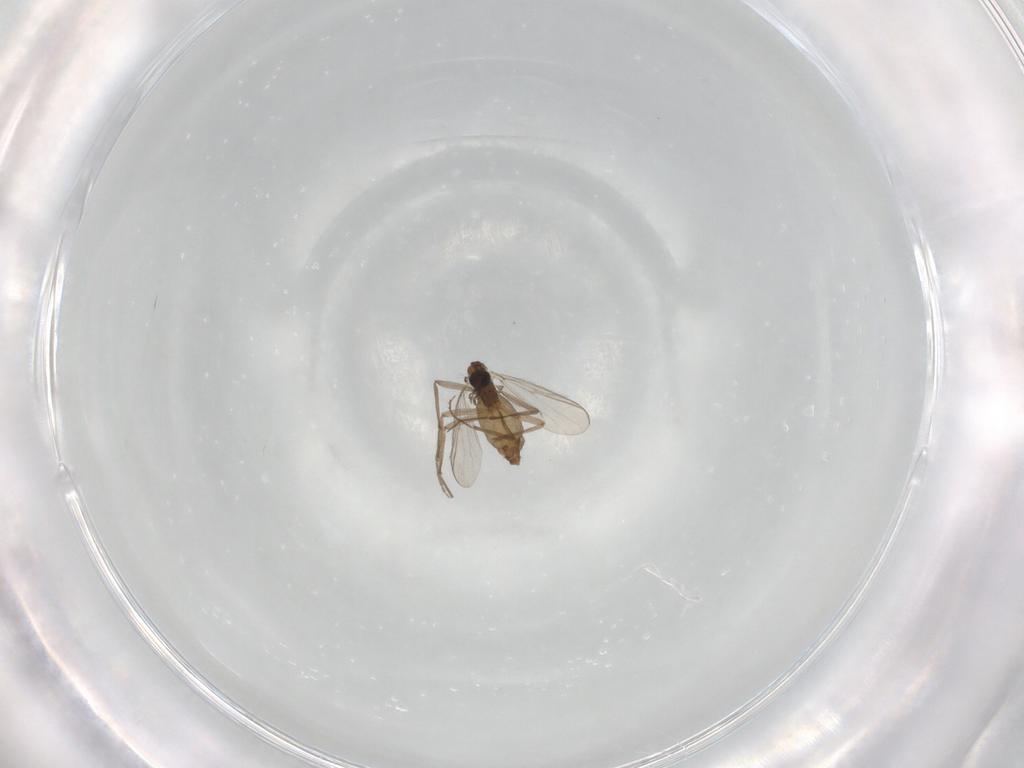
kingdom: Animalia
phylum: Arthropoda
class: Insecta
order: Diptera
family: Chironomidae
